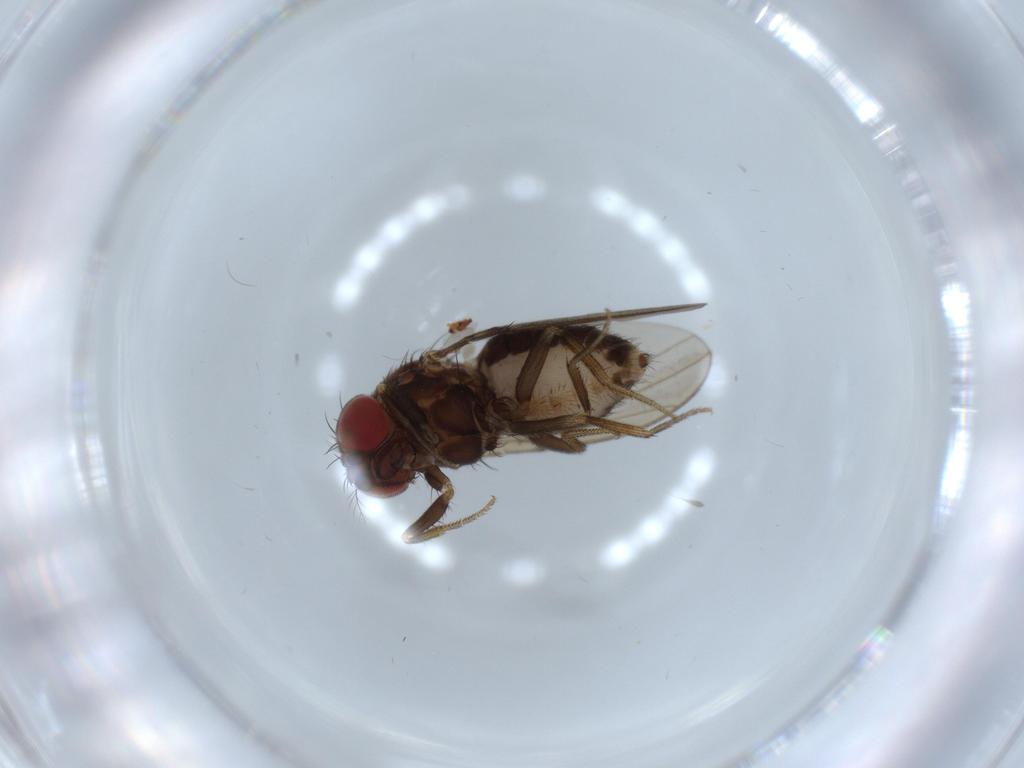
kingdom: Animalia
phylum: Arthropoda
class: Insecta
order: Diptera
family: Drosophilidae
